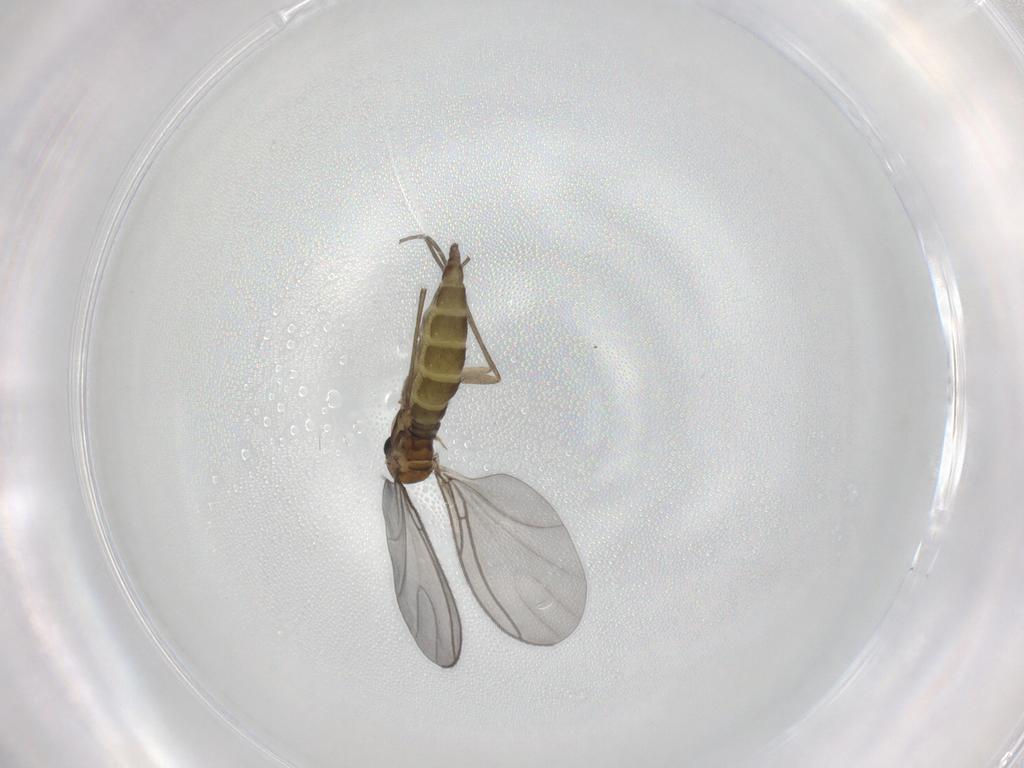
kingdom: Animalia
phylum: Arthropoda
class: Insecta
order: Diptera
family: Sciaridae
